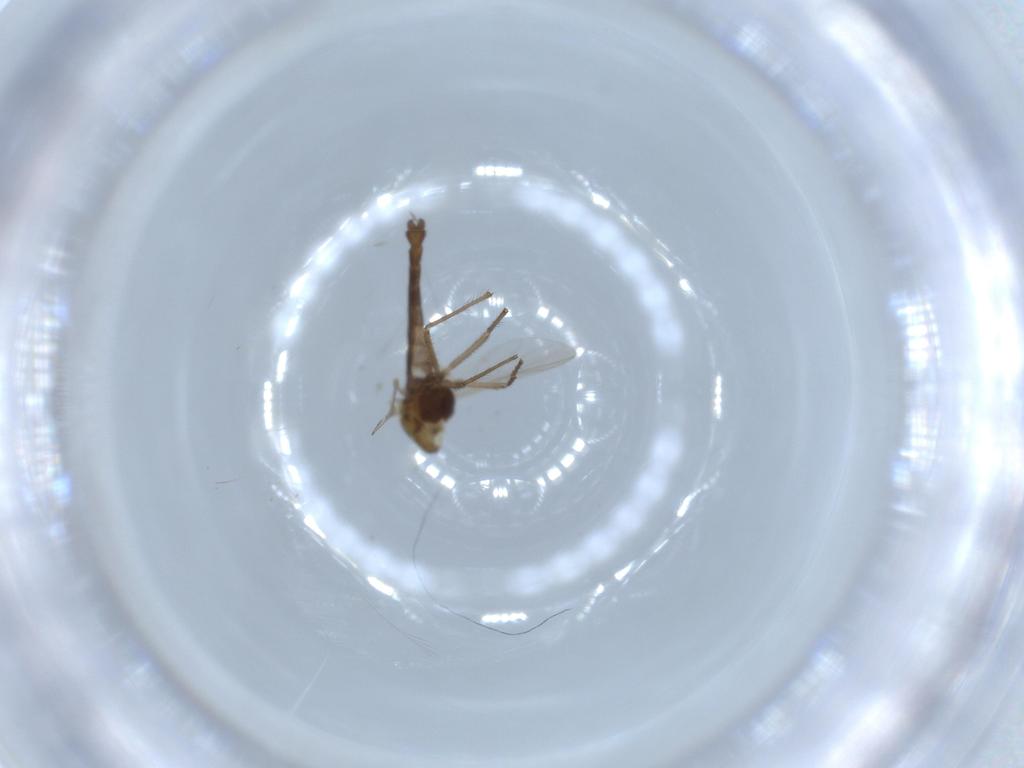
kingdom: Animalia
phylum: Arthropoda
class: Insecta
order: Diptera
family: Chironomidae
